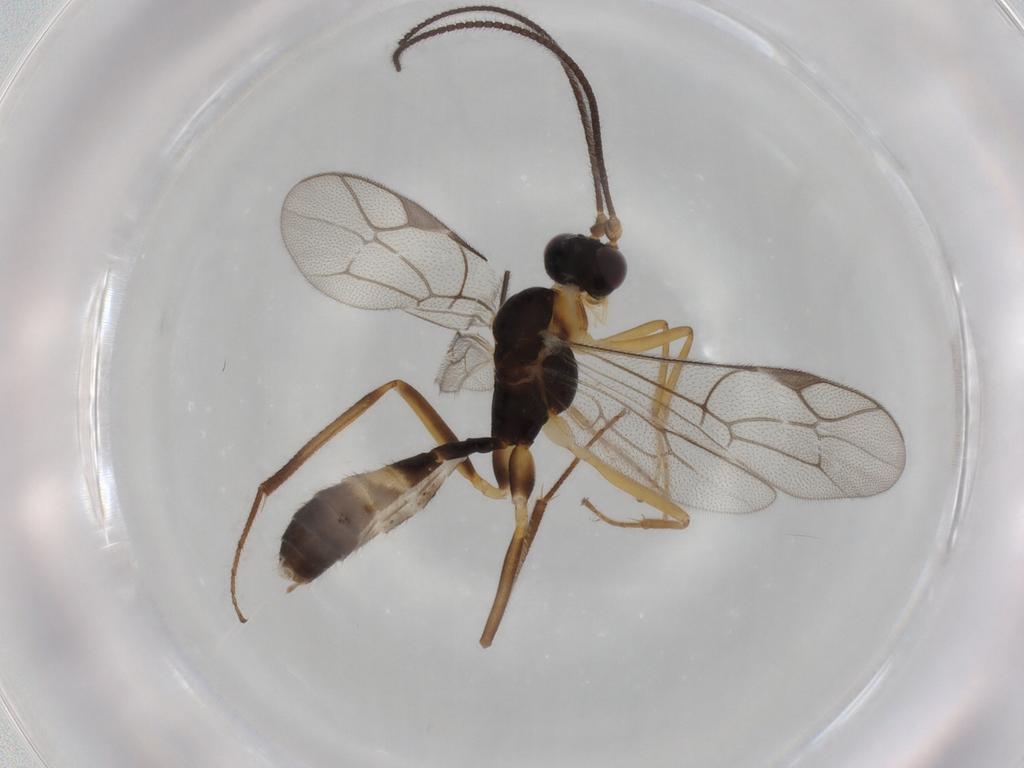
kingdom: Animalia
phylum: Arthropoda
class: Insecta
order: Hymenoptera
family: Ichneumonidae
